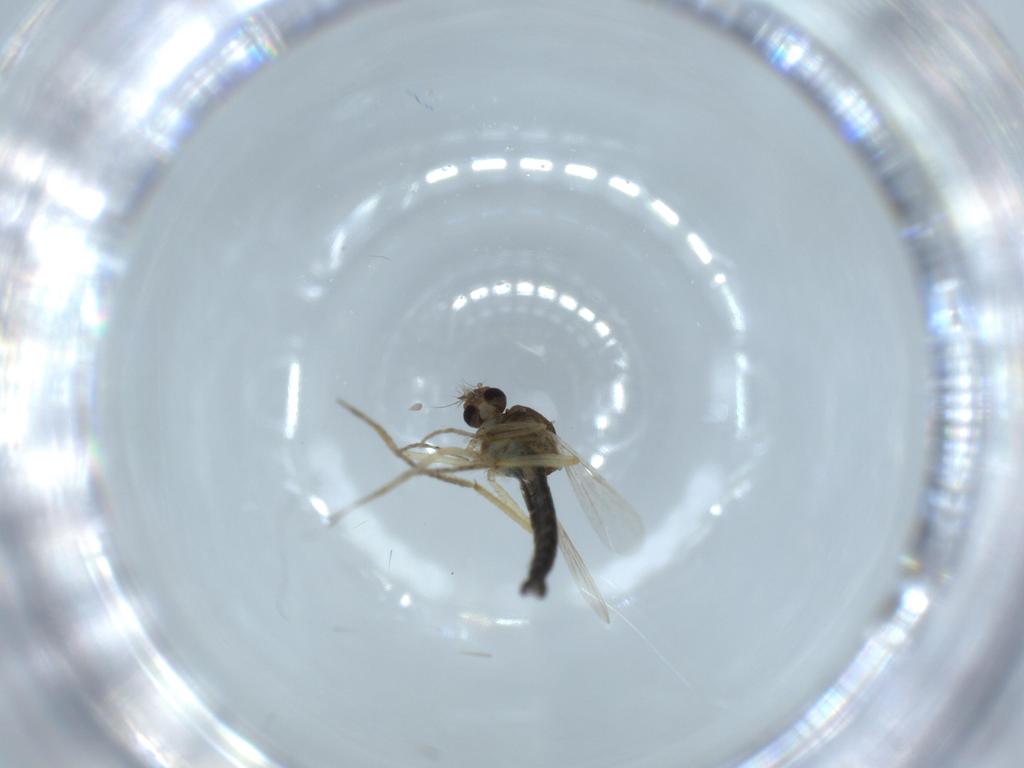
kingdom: Animalia
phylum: Arthropoda
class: Insecta
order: Diptera
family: Ceratopogonidae
